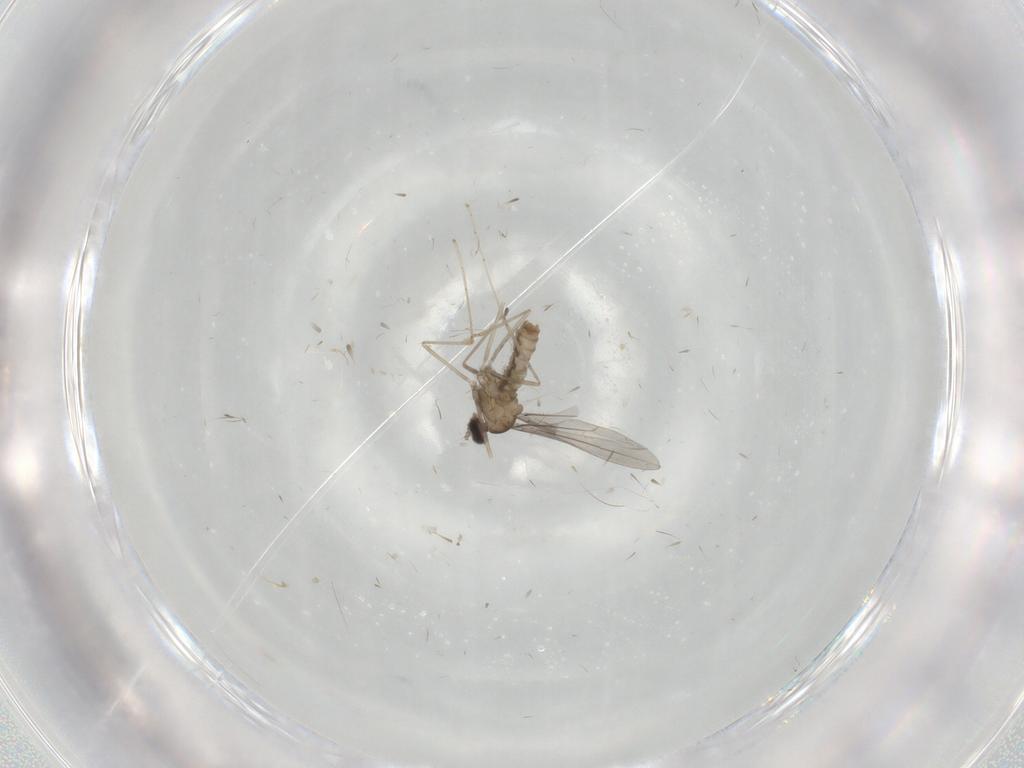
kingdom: Animalia
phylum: Arthropoda
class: Insecta
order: Diptera
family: Cecidomyiidae
